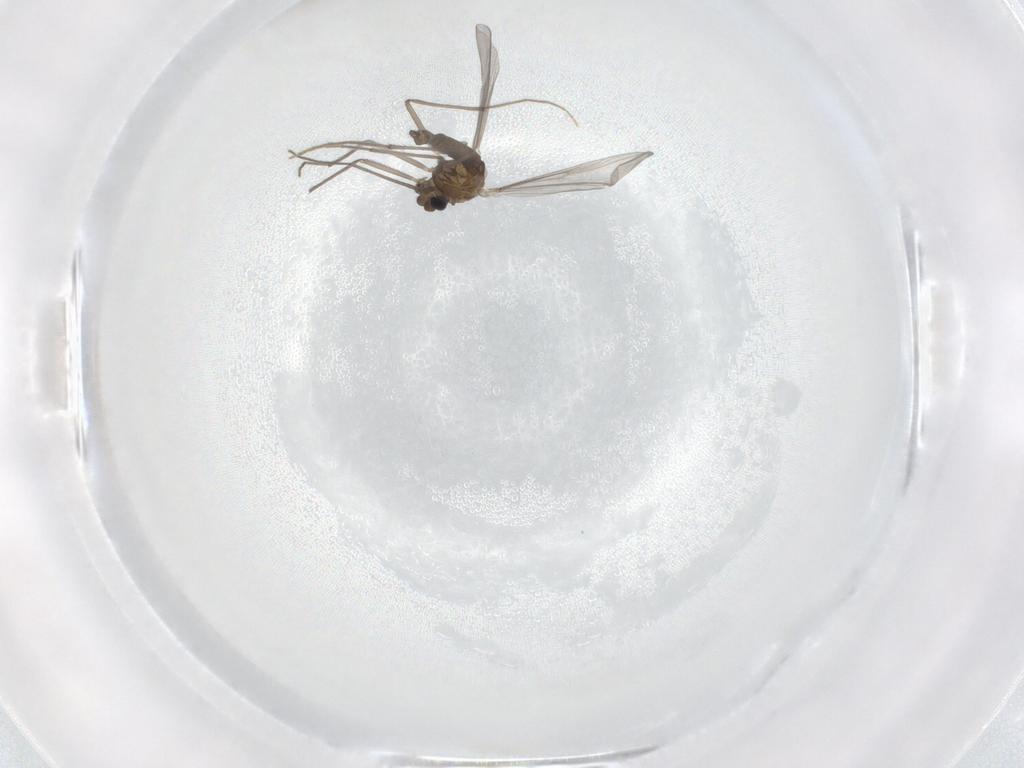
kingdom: Animalia
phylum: Arthropoda
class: Insecta
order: Diptera
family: Chironomidae
